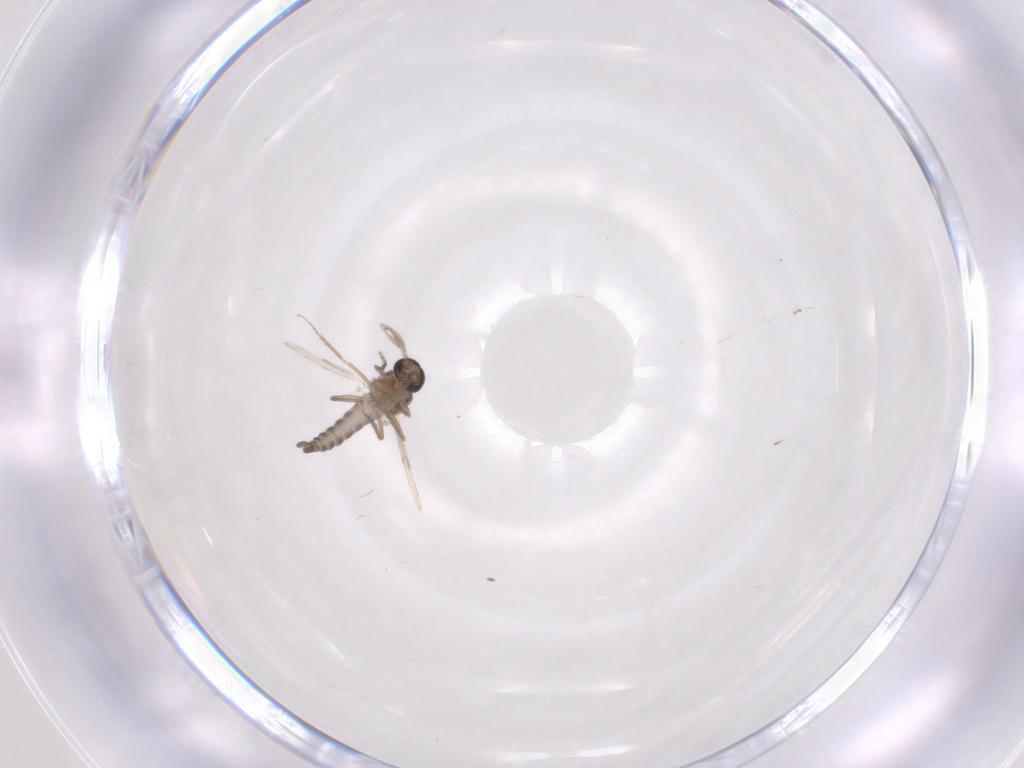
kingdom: Animalia
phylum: Arthropoda
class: Insecta
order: Diptera
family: Ceratopogonidae
